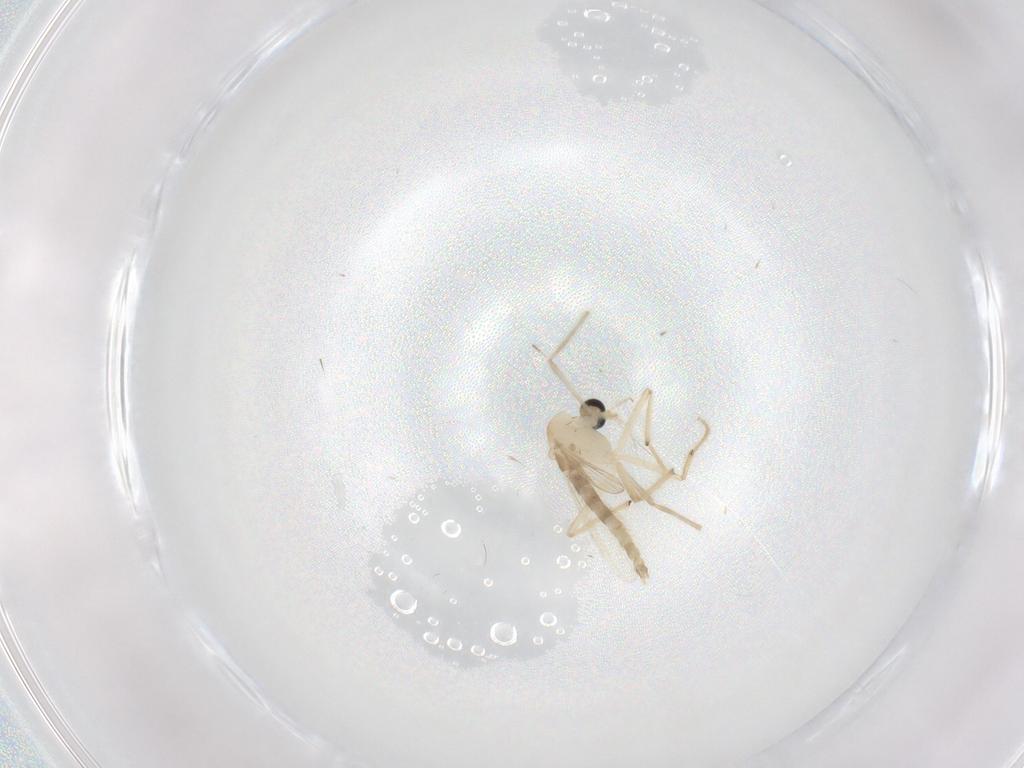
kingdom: Animalia
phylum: Arthropoda
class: Insecta
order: Diptera
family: Chironomidae
